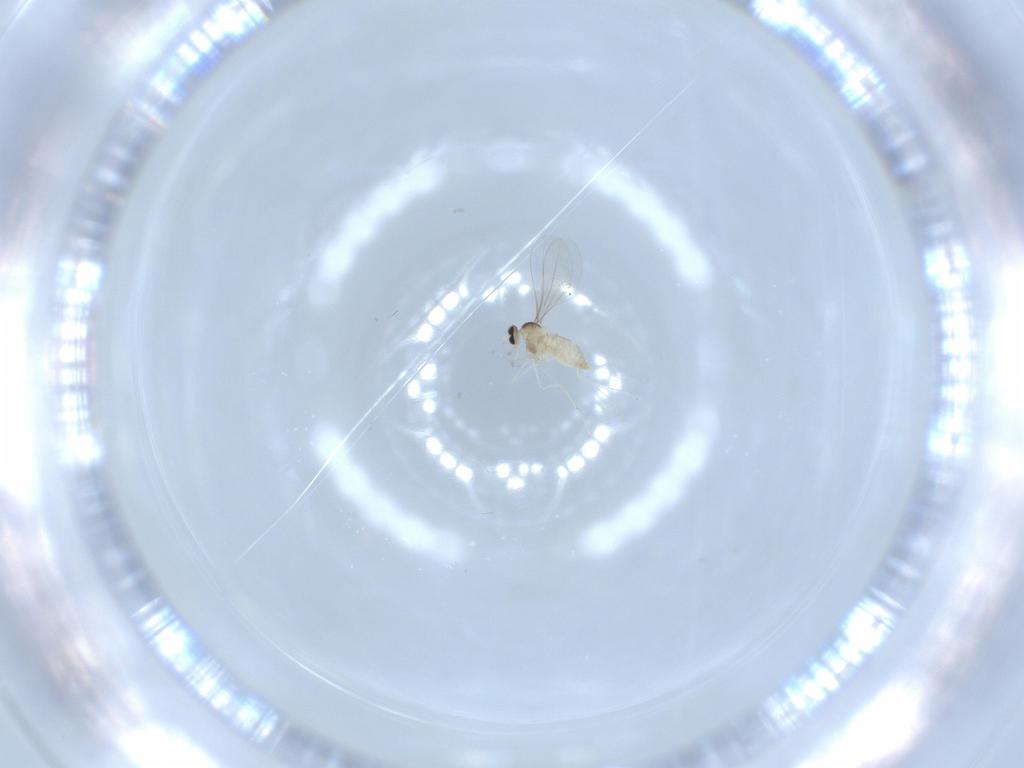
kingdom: Animalia
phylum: Arthropoda
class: Insecta
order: Diptera
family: Cecidomyiidae
